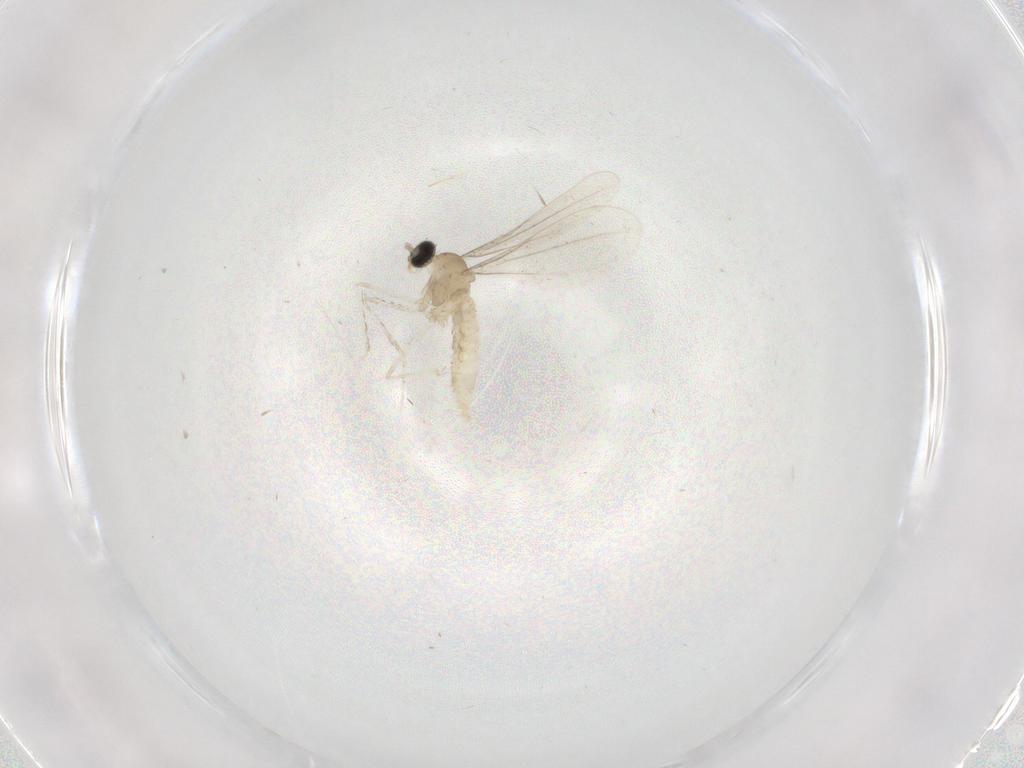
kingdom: Animalia
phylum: Arthropoda
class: Insecta
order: Diptera
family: Cecidomyiidae
